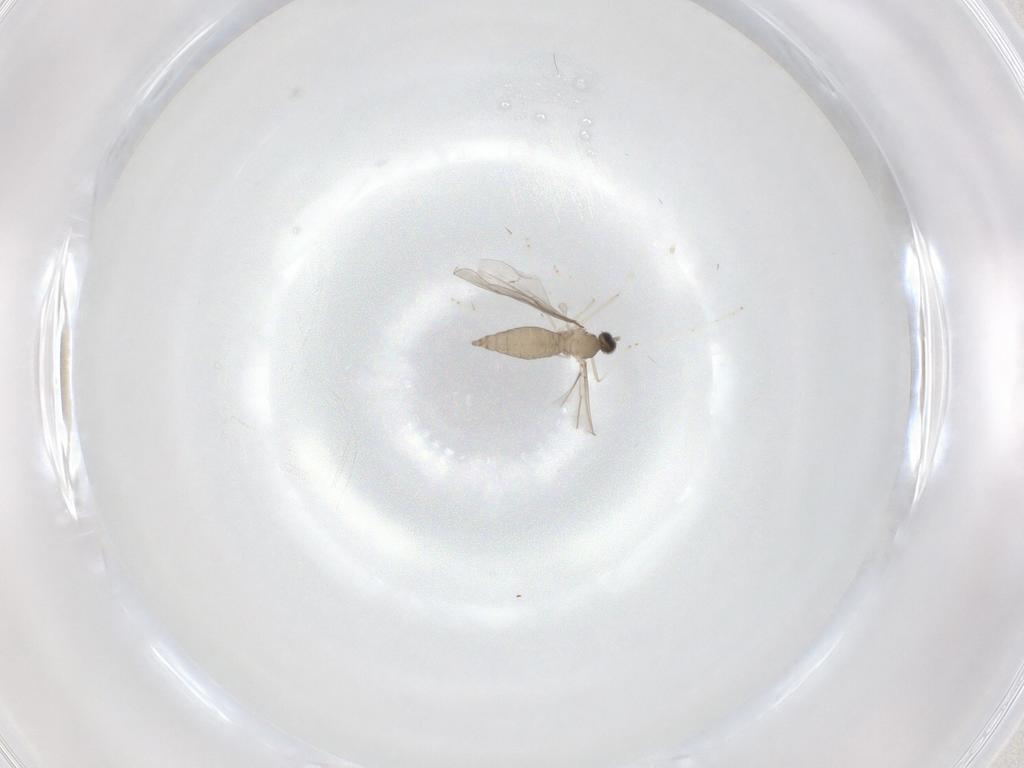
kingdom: Animalia
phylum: Arthropoda
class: Insecta
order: Diptera
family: Cecidomyiidae
